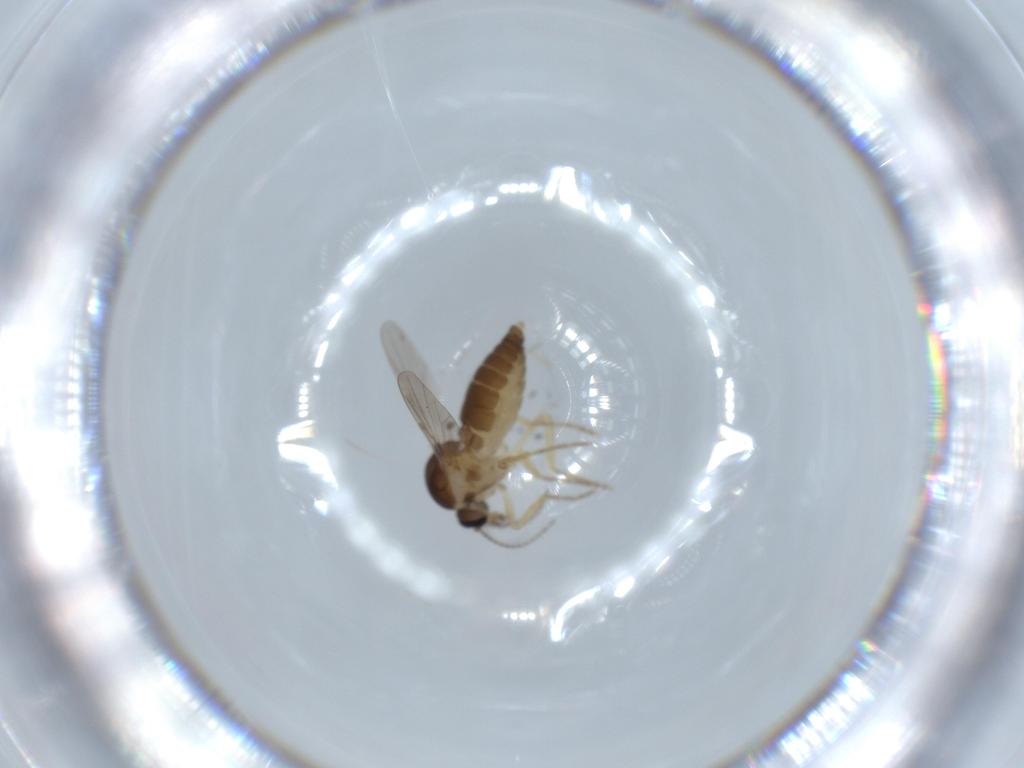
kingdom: Animalia
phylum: Arthropoda
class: Insecta
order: Diptera
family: Ceratopogonidae
